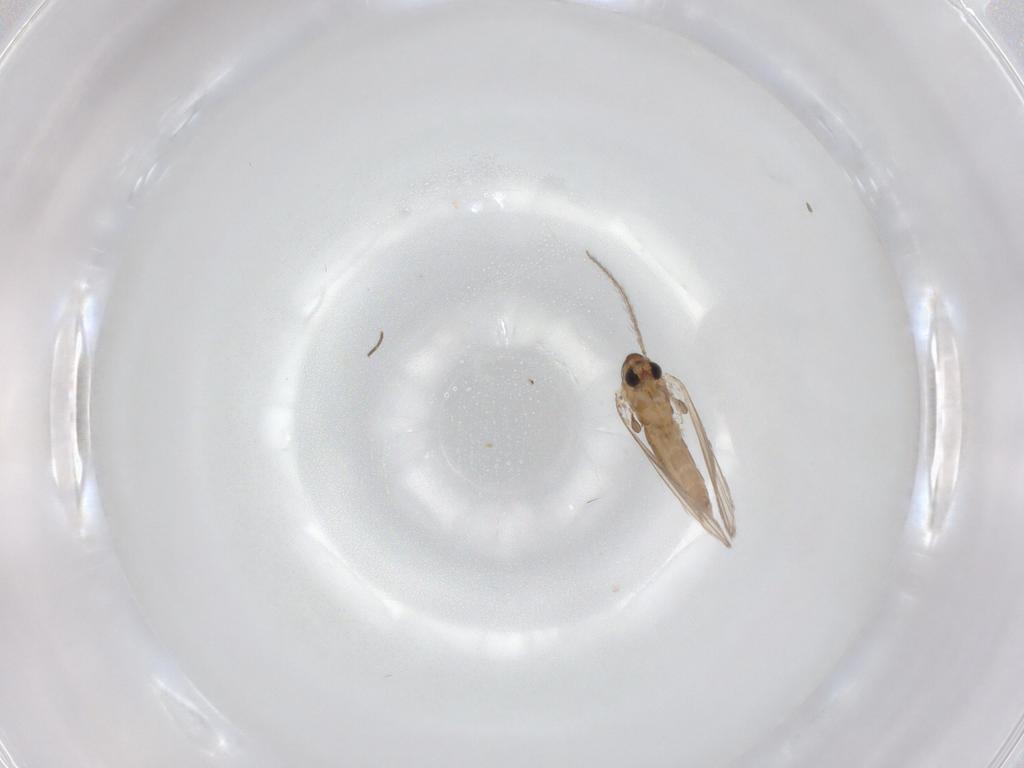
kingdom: Animalia
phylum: Arthropoda
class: Insecta
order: Diptera
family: Psychodidae
